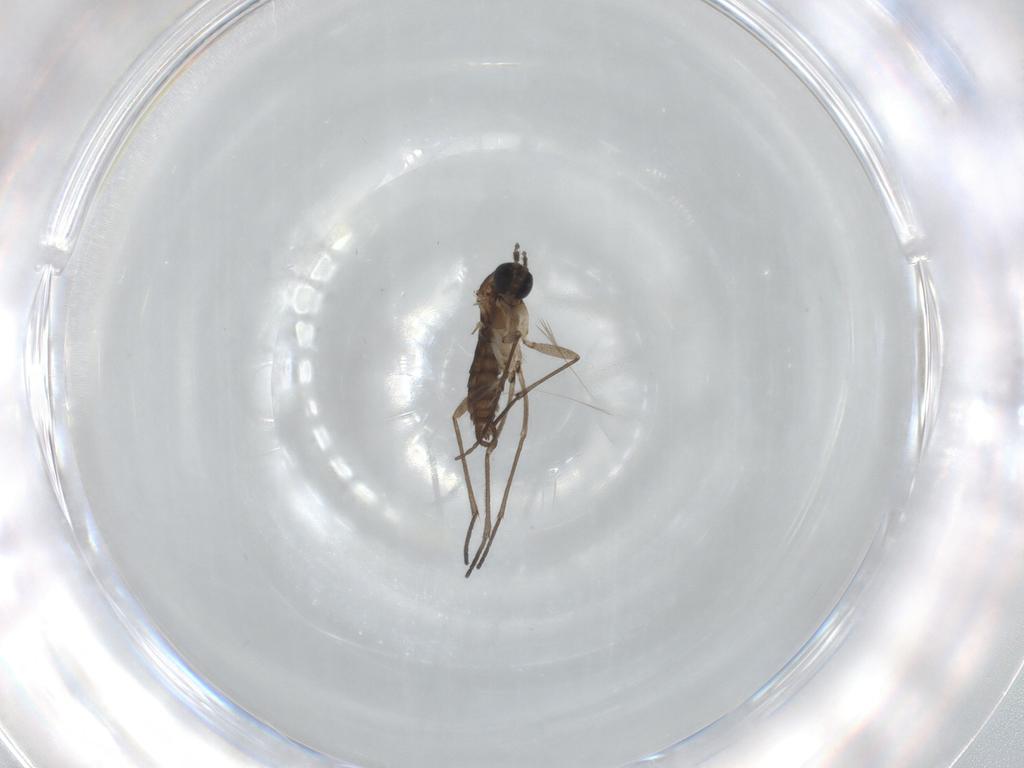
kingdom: Animalia
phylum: Arthropoda
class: Insecta
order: Diptera
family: Sciaridae
